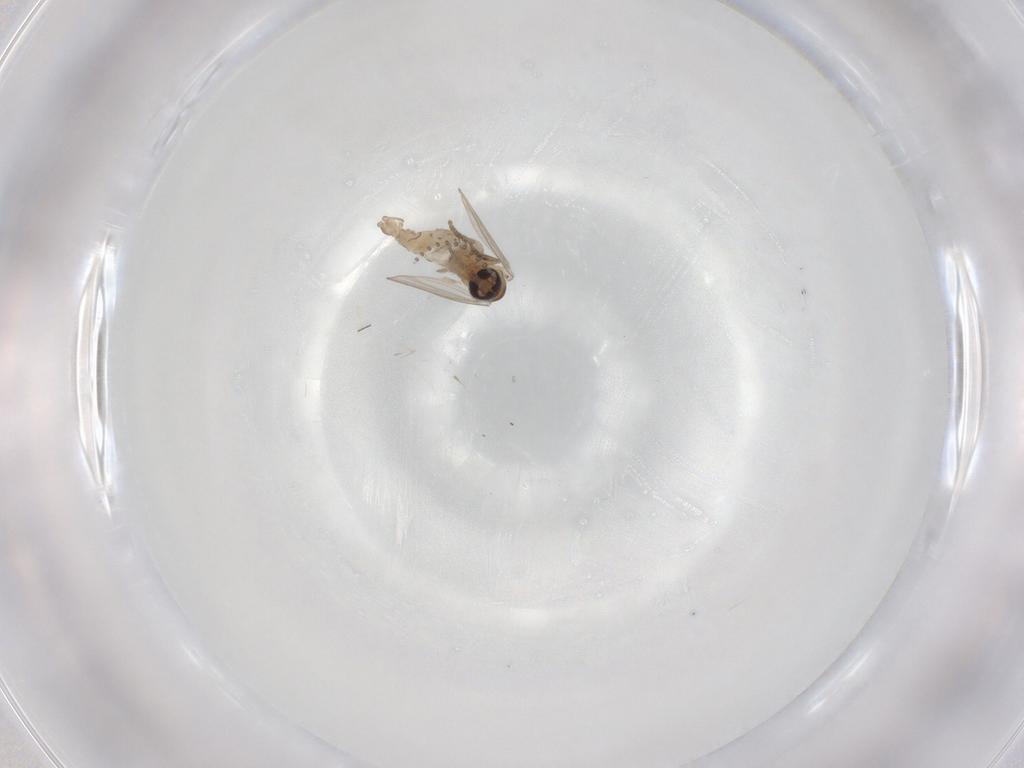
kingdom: Animalia
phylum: Arthropoda
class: Insecta
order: Diptera
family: Psychodidae
